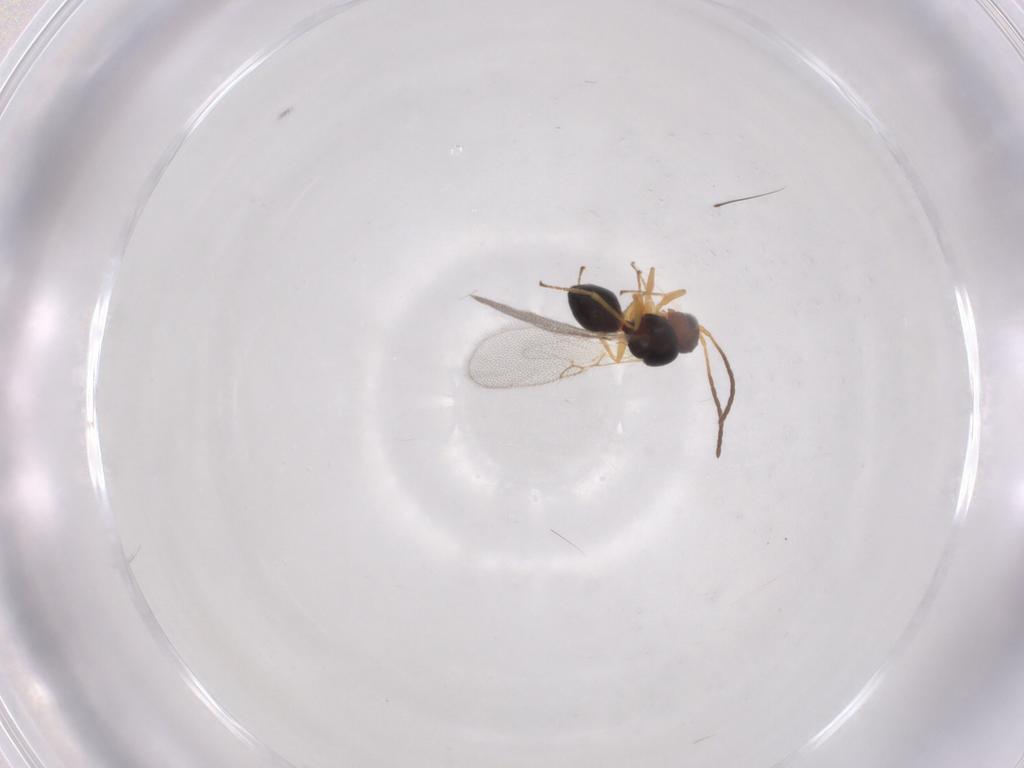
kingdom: Animalia
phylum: Arthropoda
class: Insecta
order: Hymenoptera
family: Figitidae
